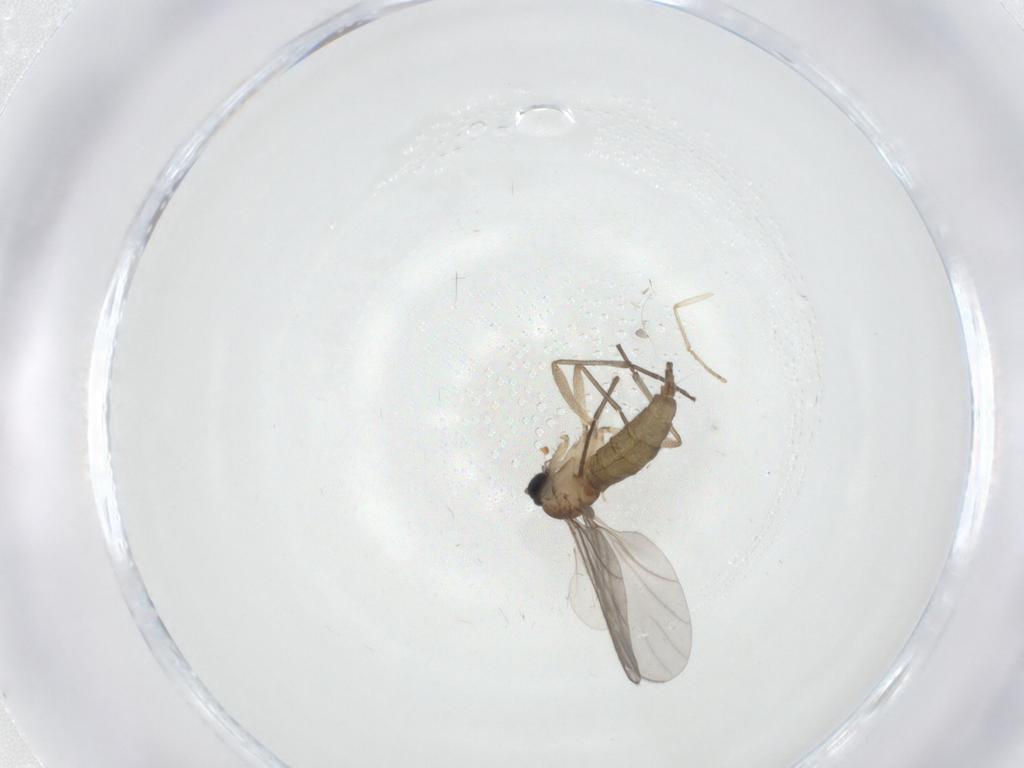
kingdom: Animalia
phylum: Arthropoda
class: Insecta
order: Diptera
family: Sciaridae
